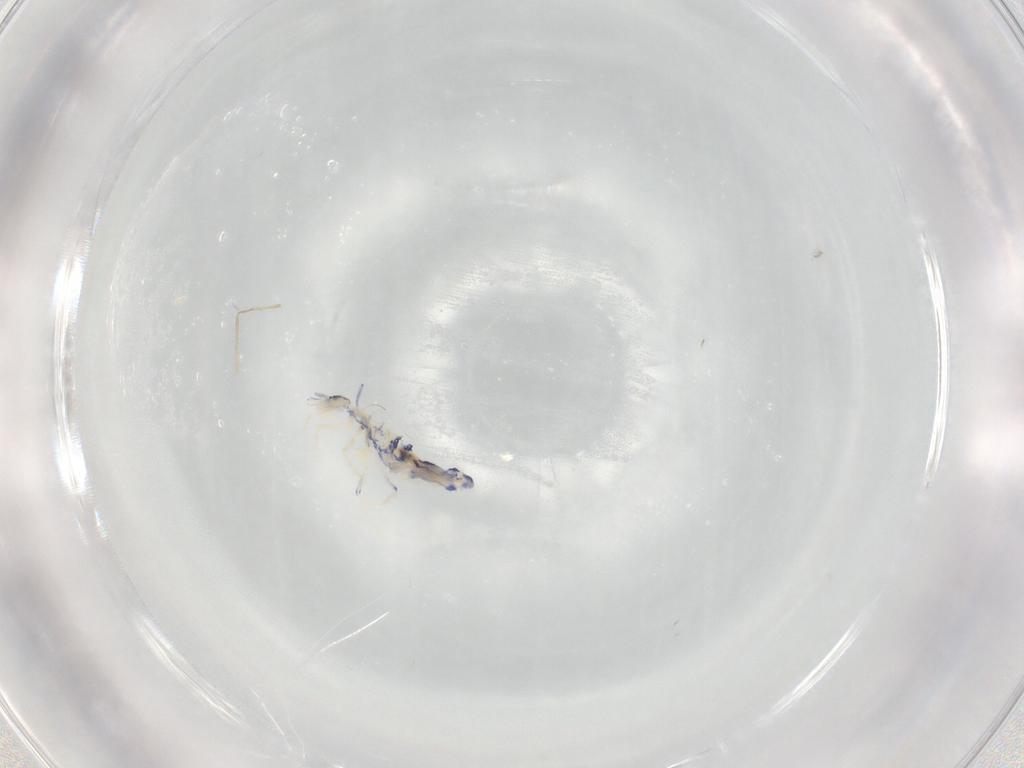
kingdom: Animalia
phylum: Arthropoda
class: Collembola
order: Entomobryomorpha
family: Entomobryidae
